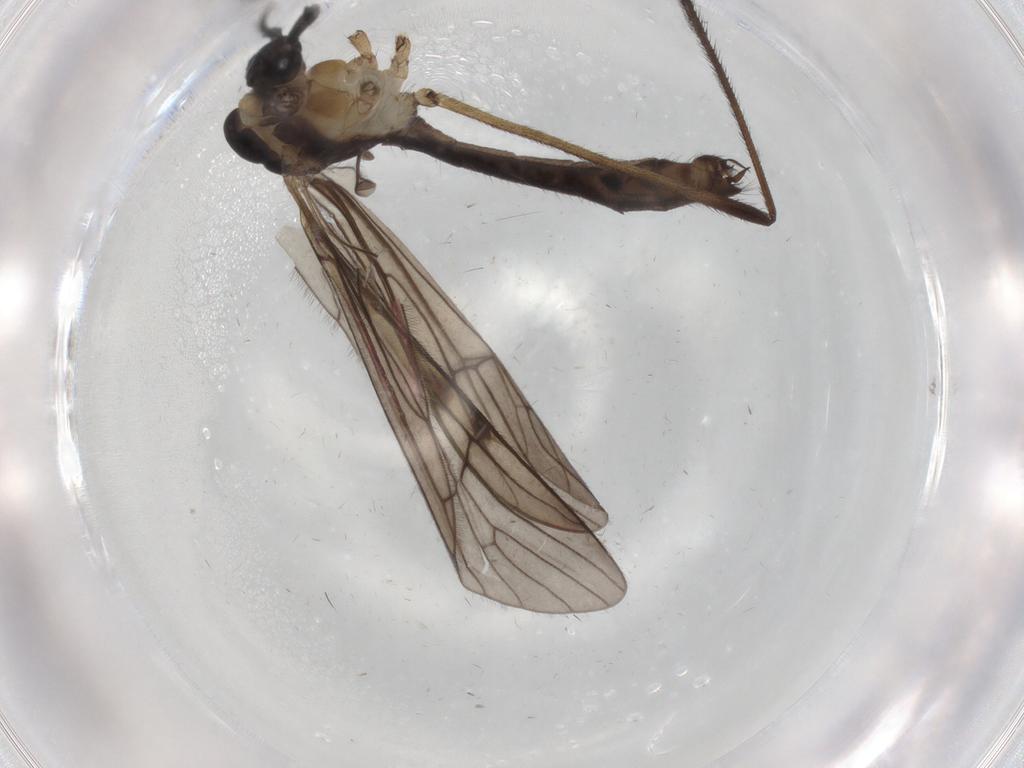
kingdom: Animalia
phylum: Arthropoda
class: Insecta
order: Diptera
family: Limoniidae
